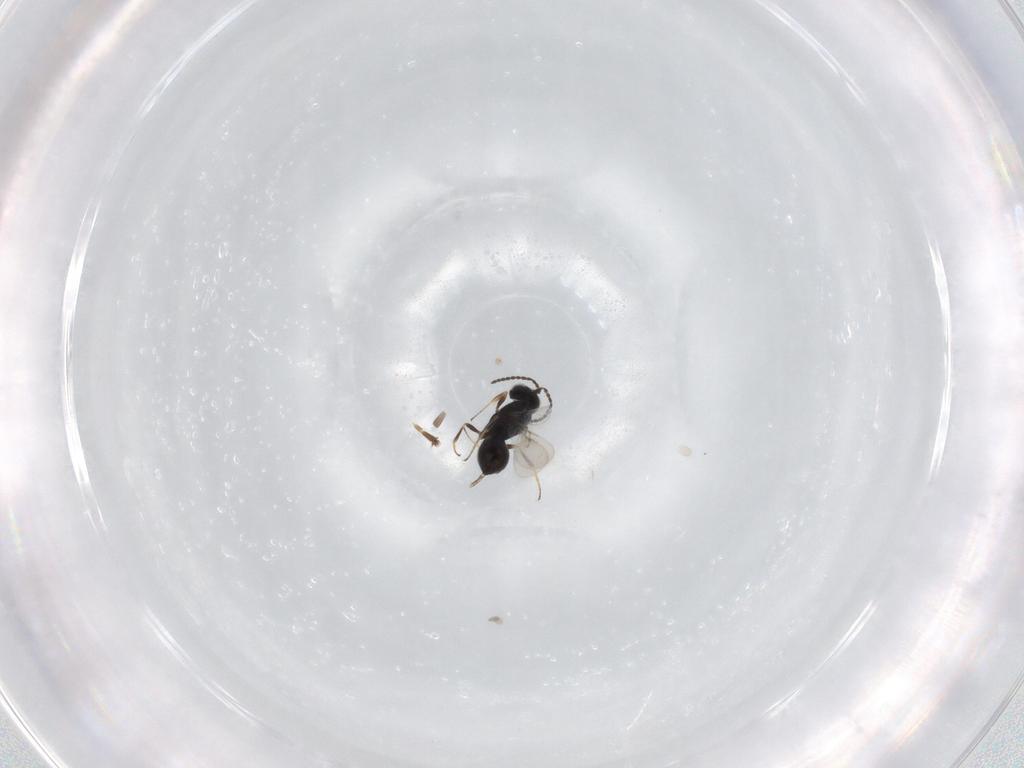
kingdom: Animalia
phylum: Arthropoda
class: Insecta
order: Hymenoptera
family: Braconidae
